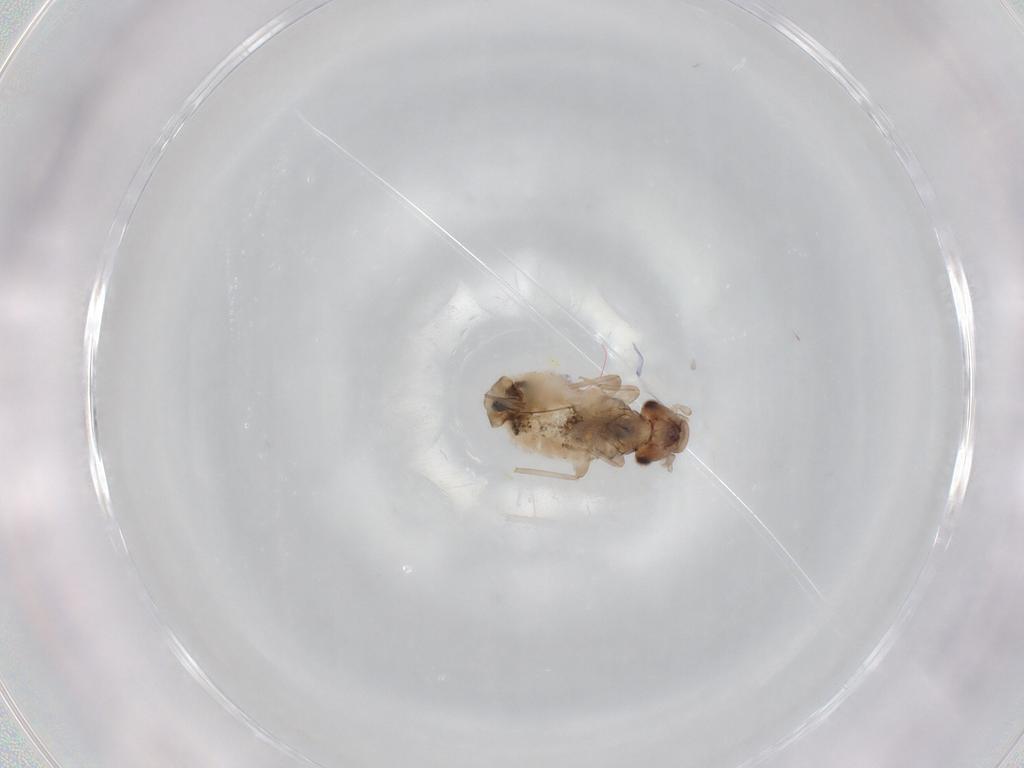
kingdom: Animalia
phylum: Arthropoda
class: Insecta
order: Psocodea
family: Trogiidae
